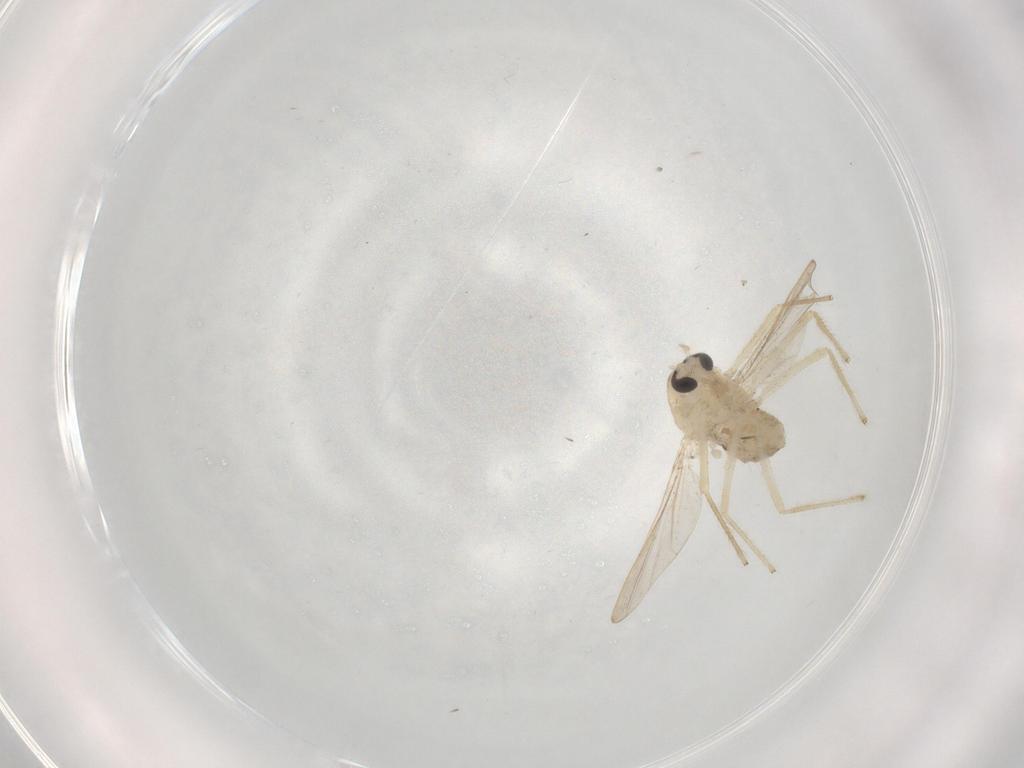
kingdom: Animalia
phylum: Arthropoda
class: Insecta
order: Diptera
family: Chironomidae
